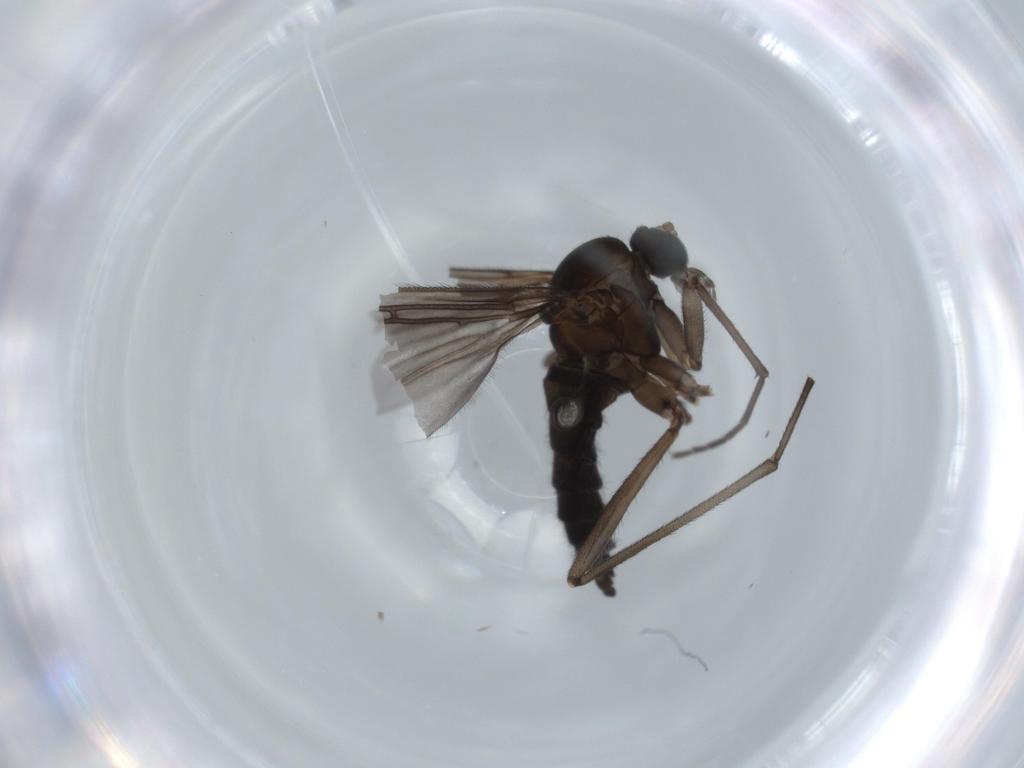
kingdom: Animalia
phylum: Arthropoda
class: Insecta
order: Diptera
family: Sciaridae
